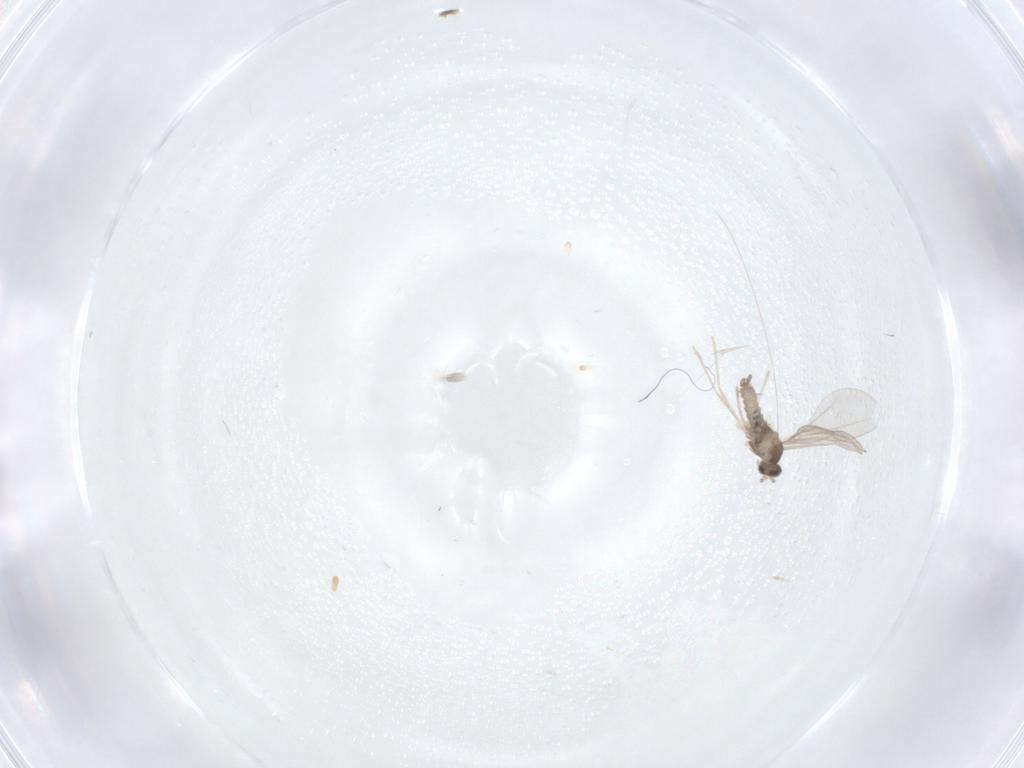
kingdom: Animalia
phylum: Arthropoda
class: Insecta
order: Diptera
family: Cecidomyiidae
